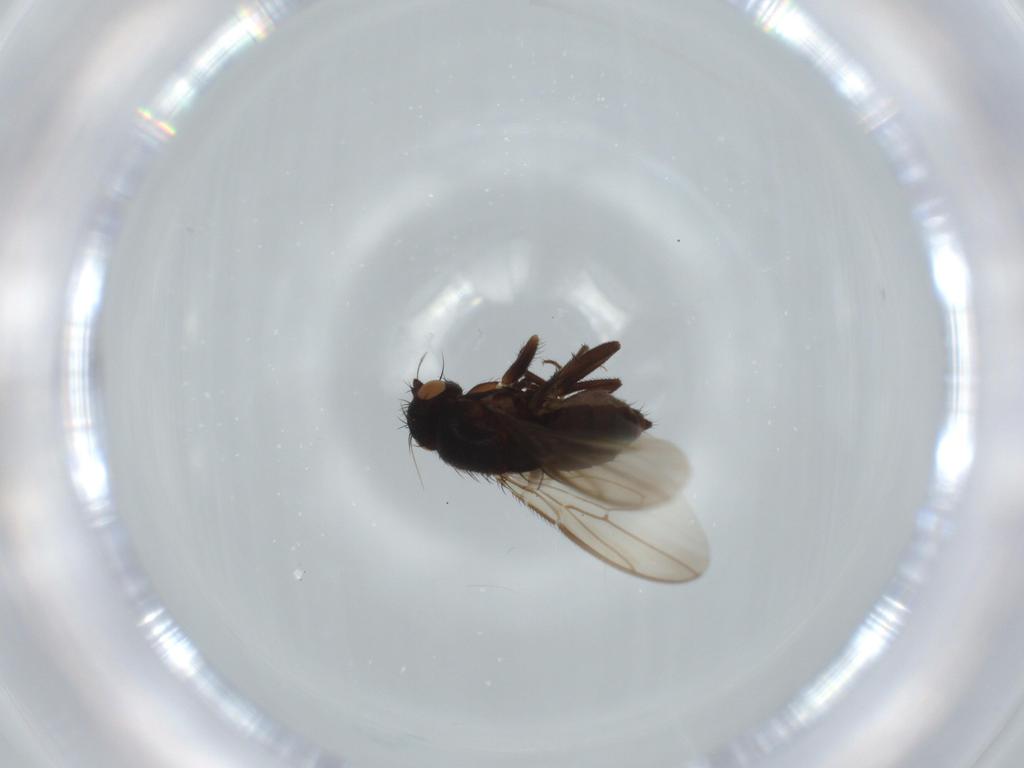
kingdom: Animalia
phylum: Arthropoda
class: Insecta
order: Diptera
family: Sphaeroceridae
